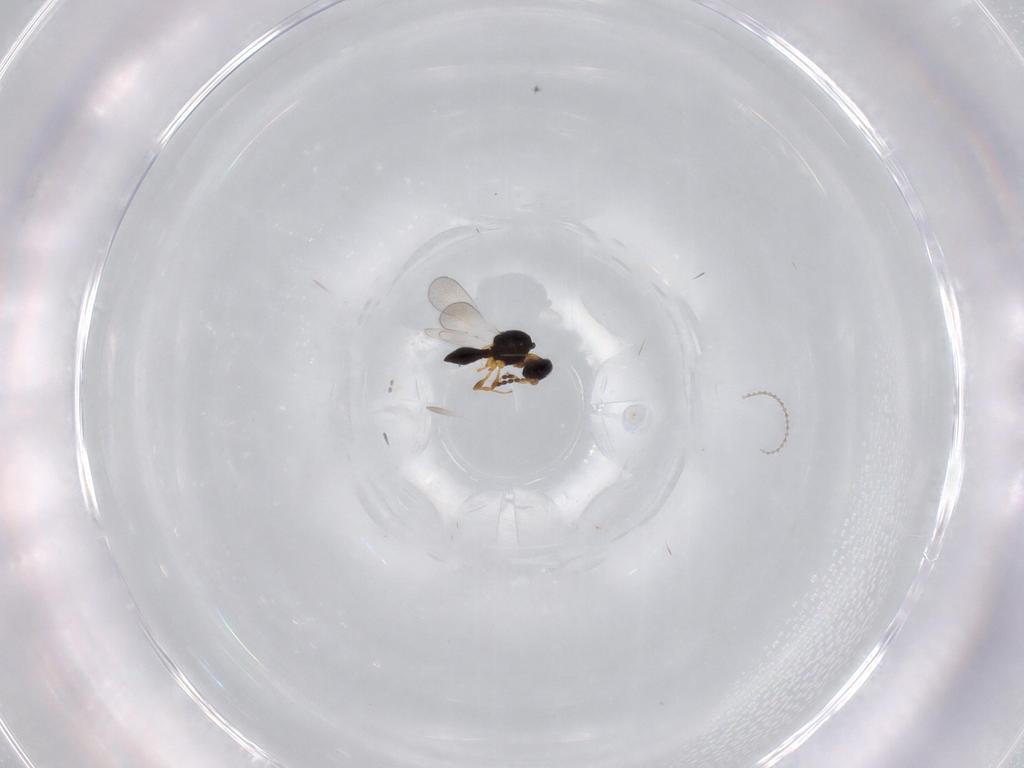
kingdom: Animalia
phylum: Arthropoda
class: Insecta
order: Hymenoptera
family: Platygastridae
